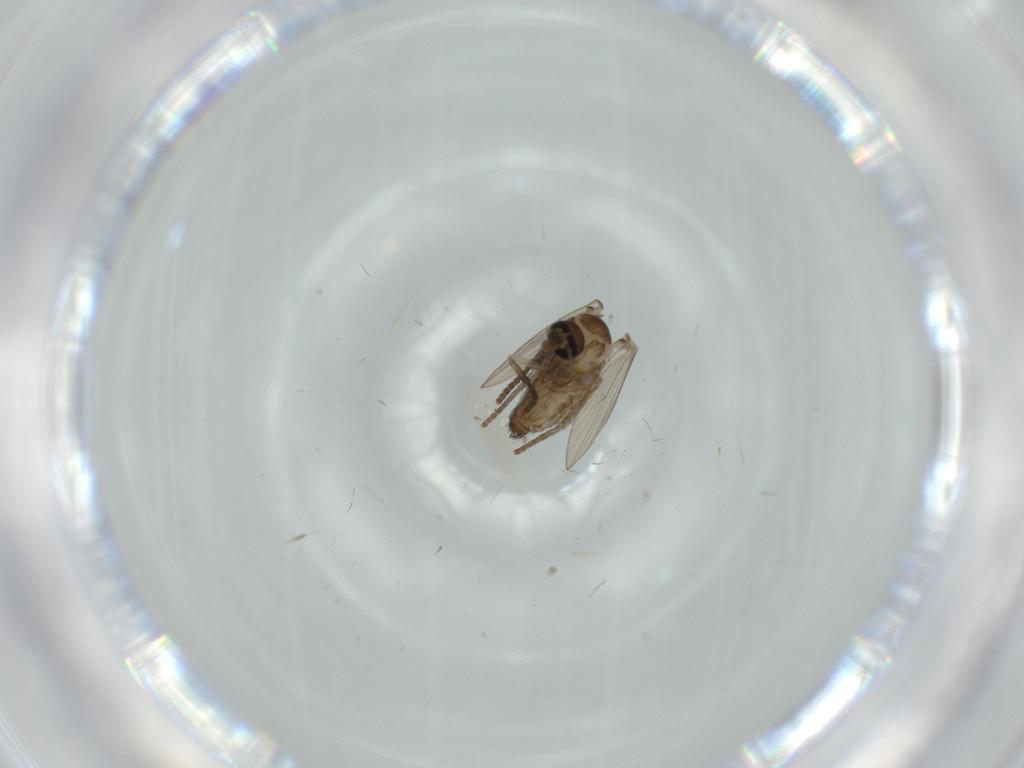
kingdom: Animalia
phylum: Arthropoda
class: Insecta
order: Diptera
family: Psychodidae
